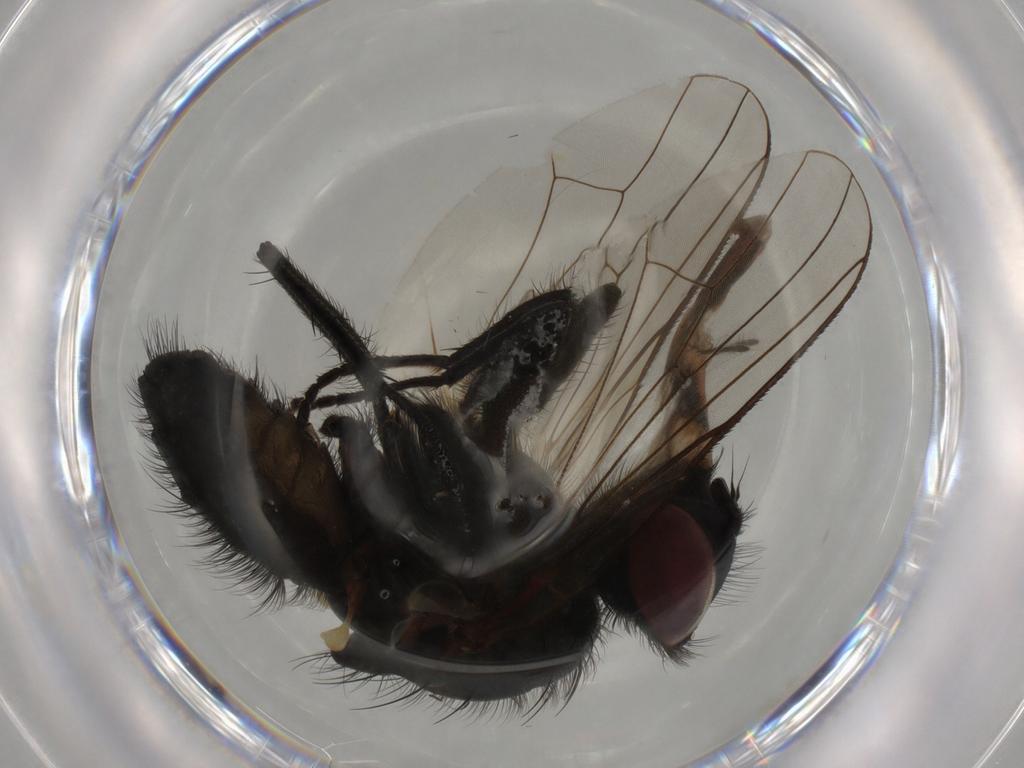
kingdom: Animalia
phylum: Arthropoda
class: Insecta
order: Diptera
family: Anthomyiidae
